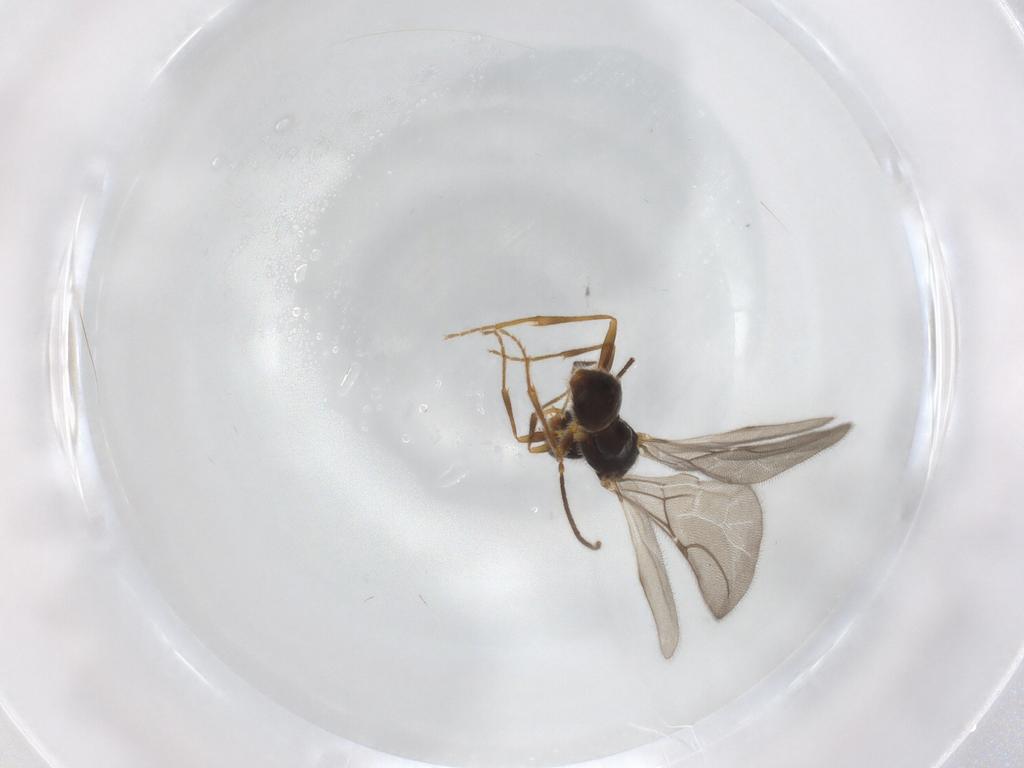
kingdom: Animalia
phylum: Arthropoda
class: Insecta
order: Hymenoptera
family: Bethylidae
